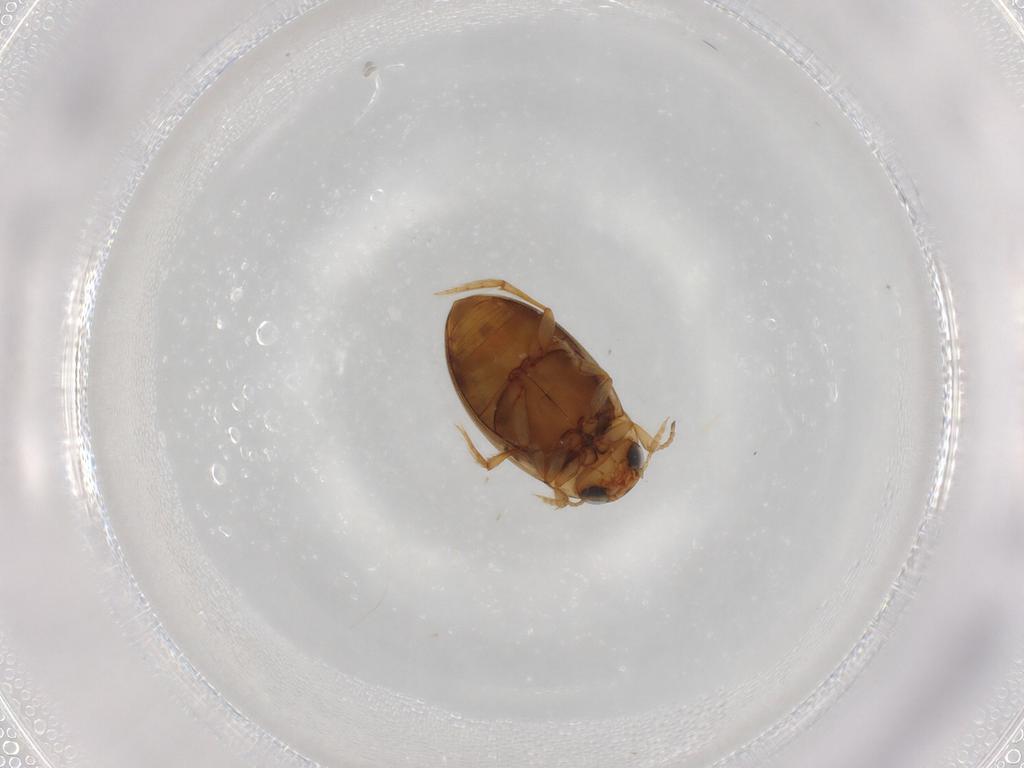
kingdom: Animalia
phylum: Arthropoda
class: Insecta
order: Coleoptera
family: Dytiscidae
